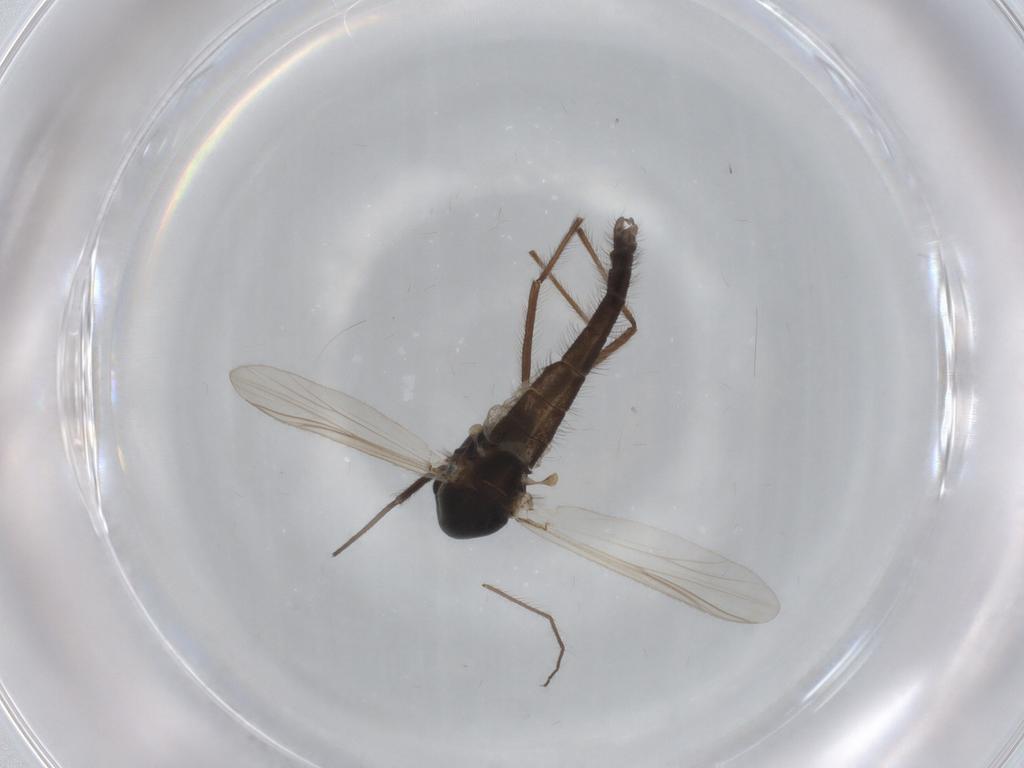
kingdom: Animalia
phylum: Arthropoda
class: Insecta
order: Diptera
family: Chironomidae
